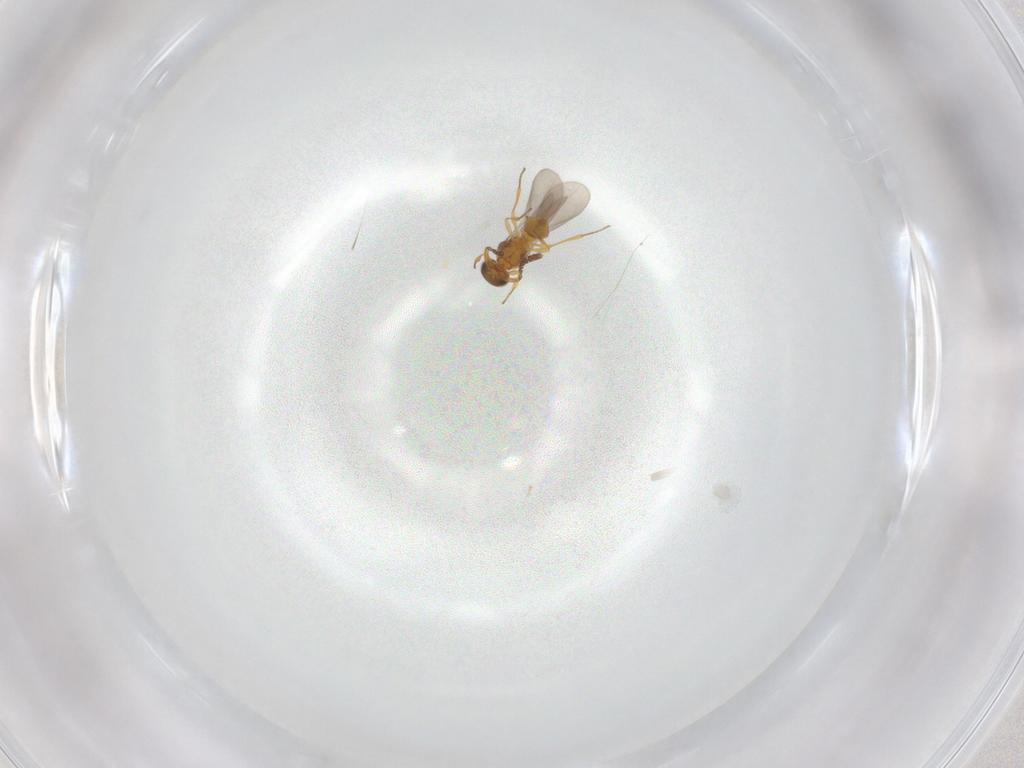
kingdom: Animalia
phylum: Arthropoda
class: Insecta
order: Hymenoptera
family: Platygastridae
